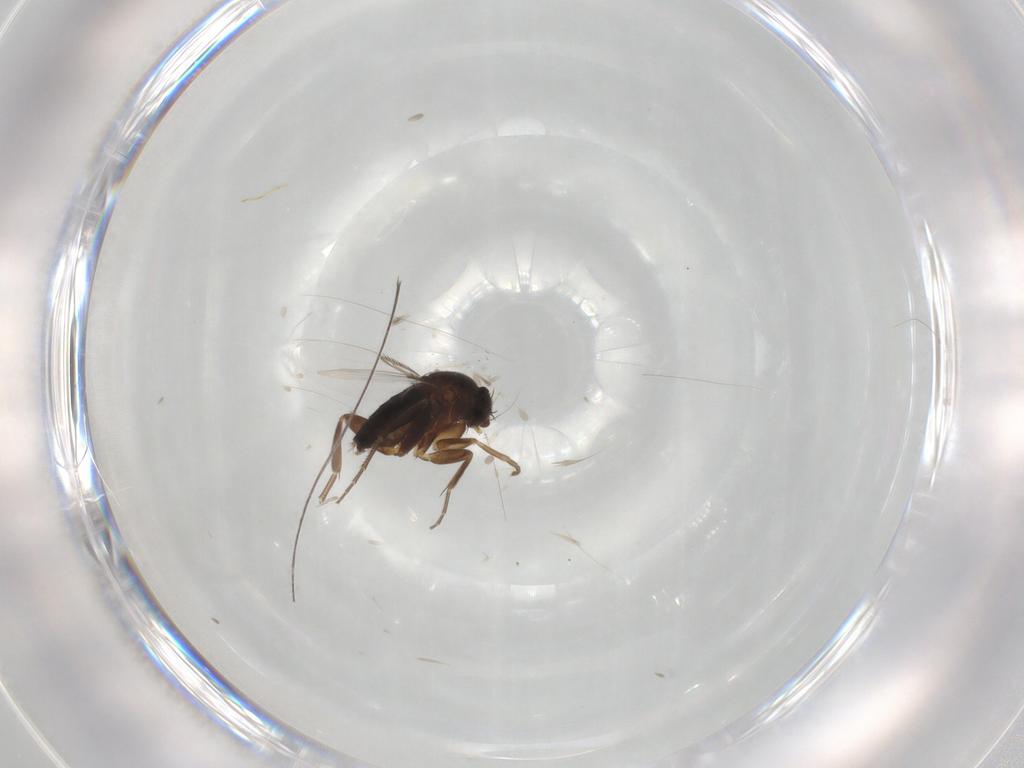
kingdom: Animalia
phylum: Arthropoda
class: Insecta
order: Diptera
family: Phoridae
